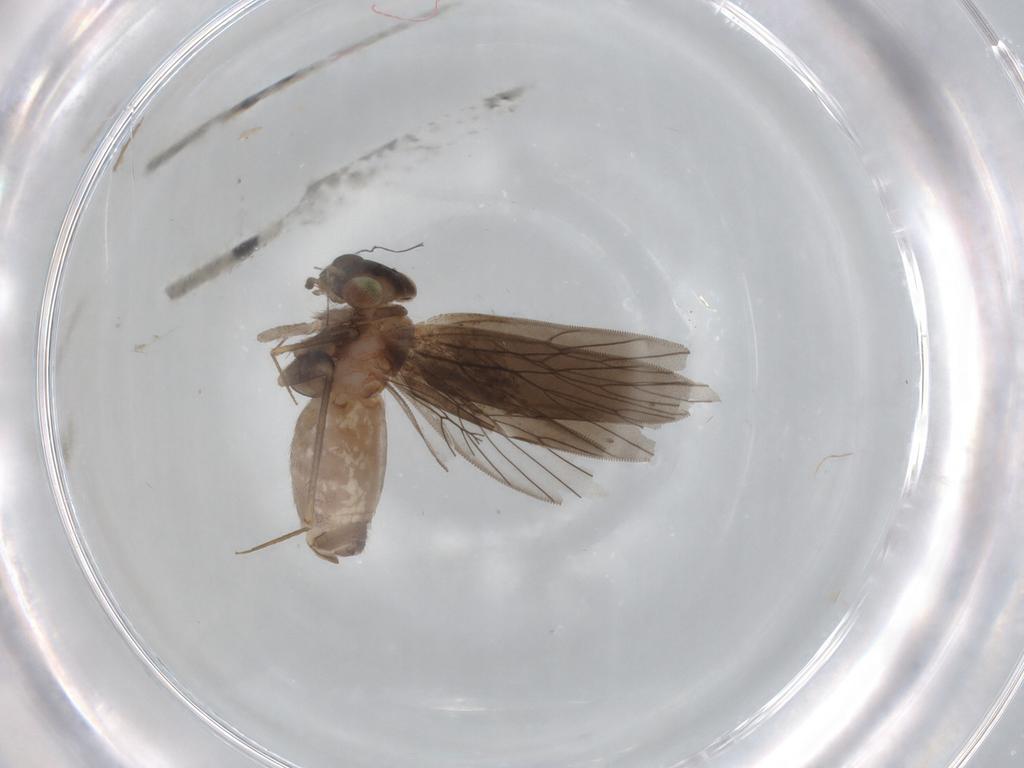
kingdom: Animalia
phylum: Arthropoda
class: Insecta
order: Psocodea
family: Lepidopsocidae
